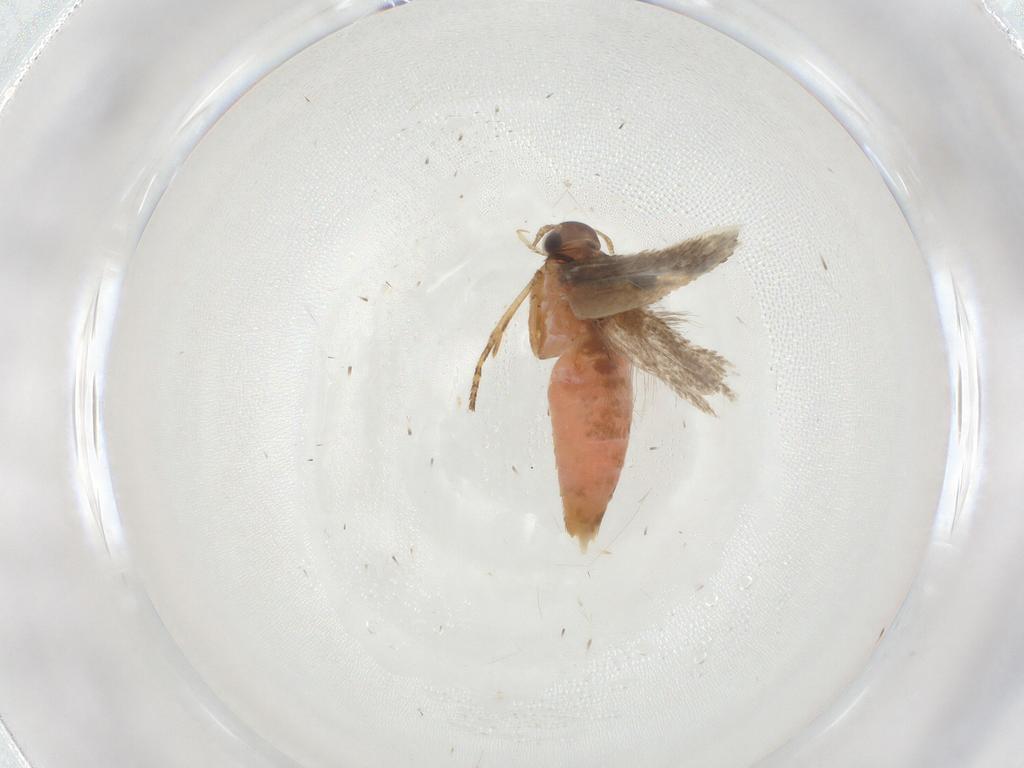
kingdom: Animalia
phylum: Arthropoda
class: Insecta
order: Lepidoptera
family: Gelechiidae
